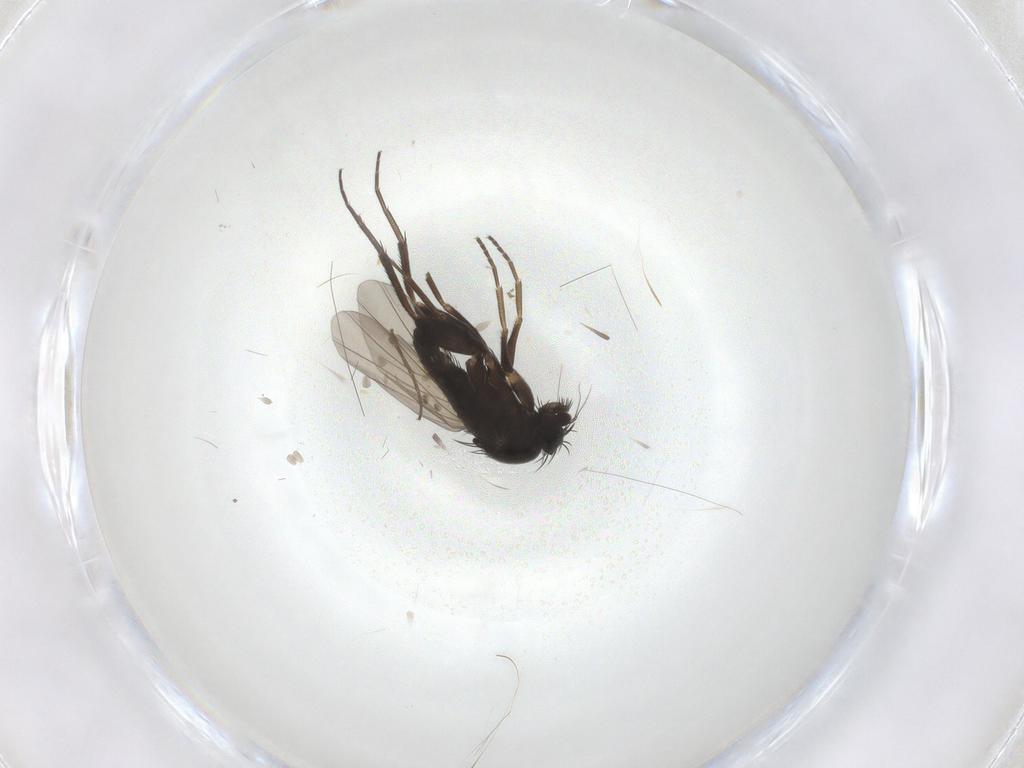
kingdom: Animalia
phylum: Arthropoda
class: Insecta
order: Diptera
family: Phoridae
